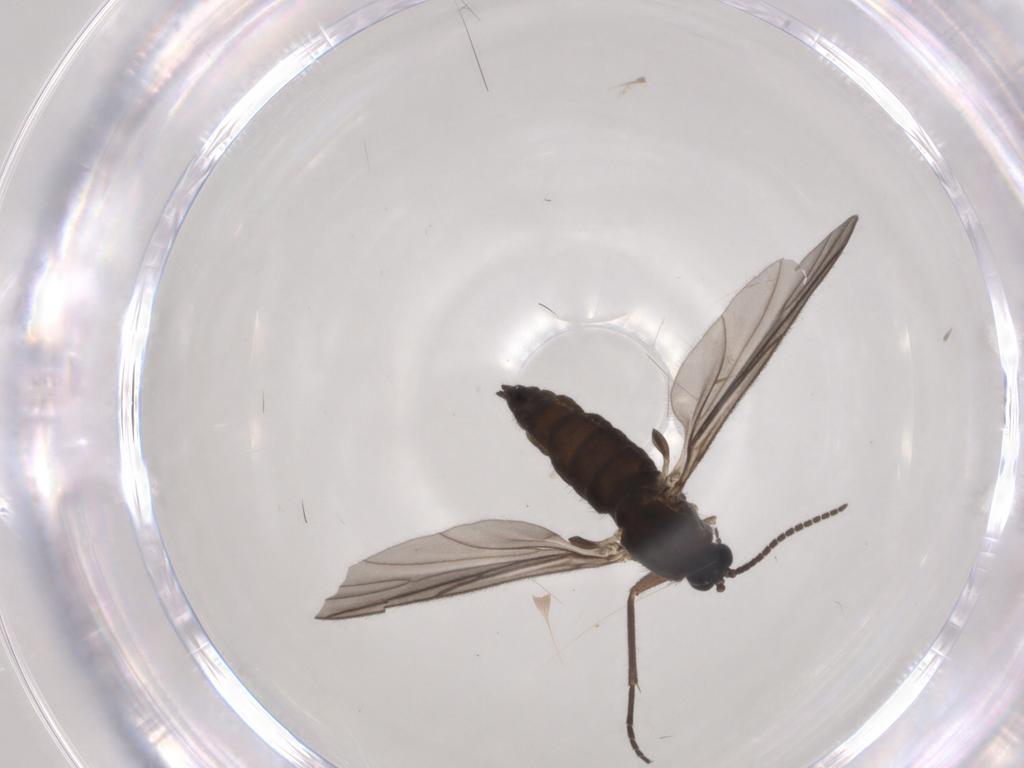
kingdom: Animalia
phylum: Arthropoda
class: Insecta
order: Diptera
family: Sciaridae
